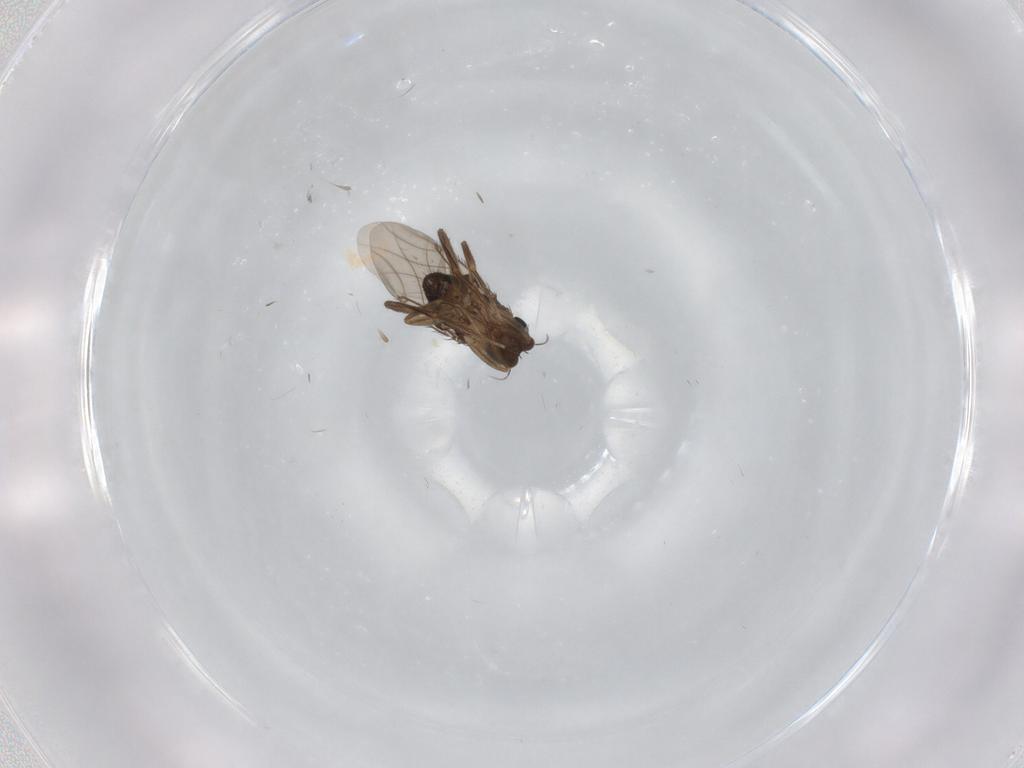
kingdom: Animalia
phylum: Arthropoda
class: Insecta
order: Diptera
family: Phoridae
